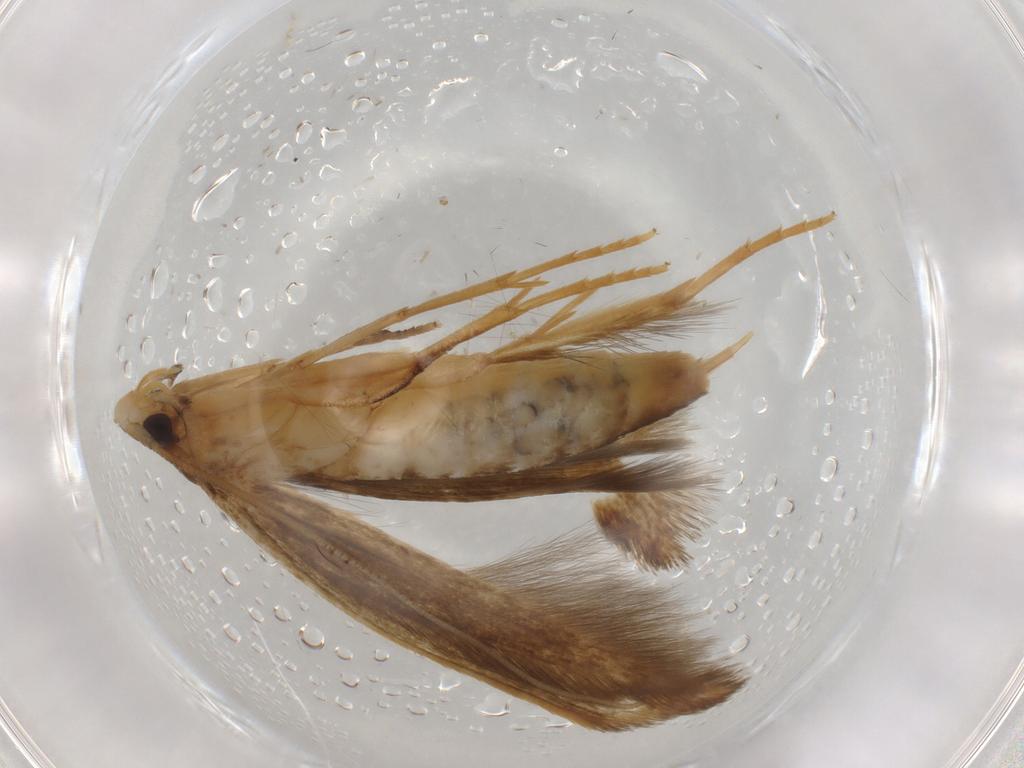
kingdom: Animalia
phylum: Arthropoda
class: Insecta
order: Lepidoptera
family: Tineidae
